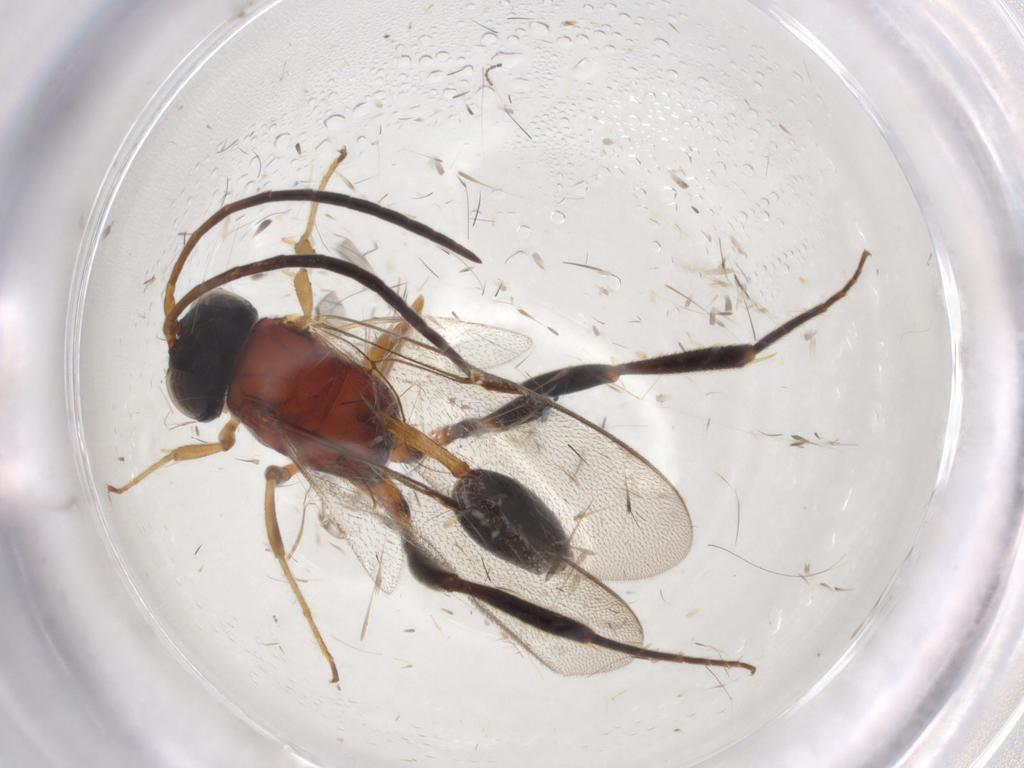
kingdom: Animalia
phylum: Arthropoda
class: Insecta
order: Hymenoptera
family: Evaniidae
